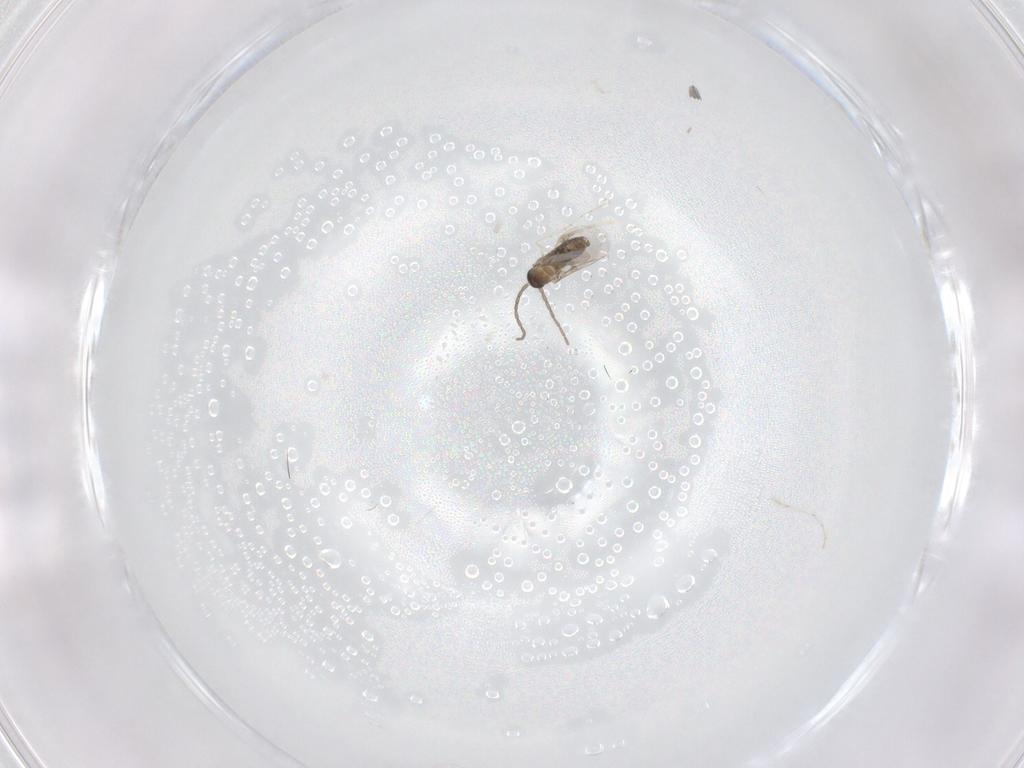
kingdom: Animalia
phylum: Arthropoda
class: Insecta
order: Diptera
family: Cecidomyiidae
